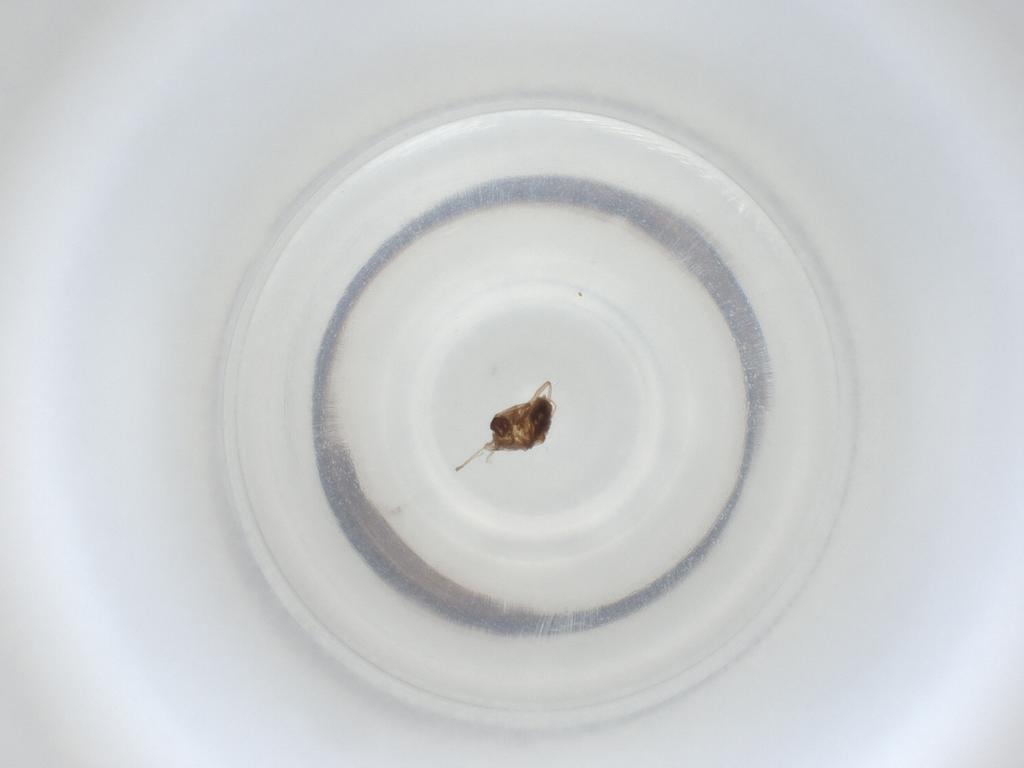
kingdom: Animalia
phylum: Arthropoda
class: Insecta
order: Diptera
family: Cecidomyiidae
